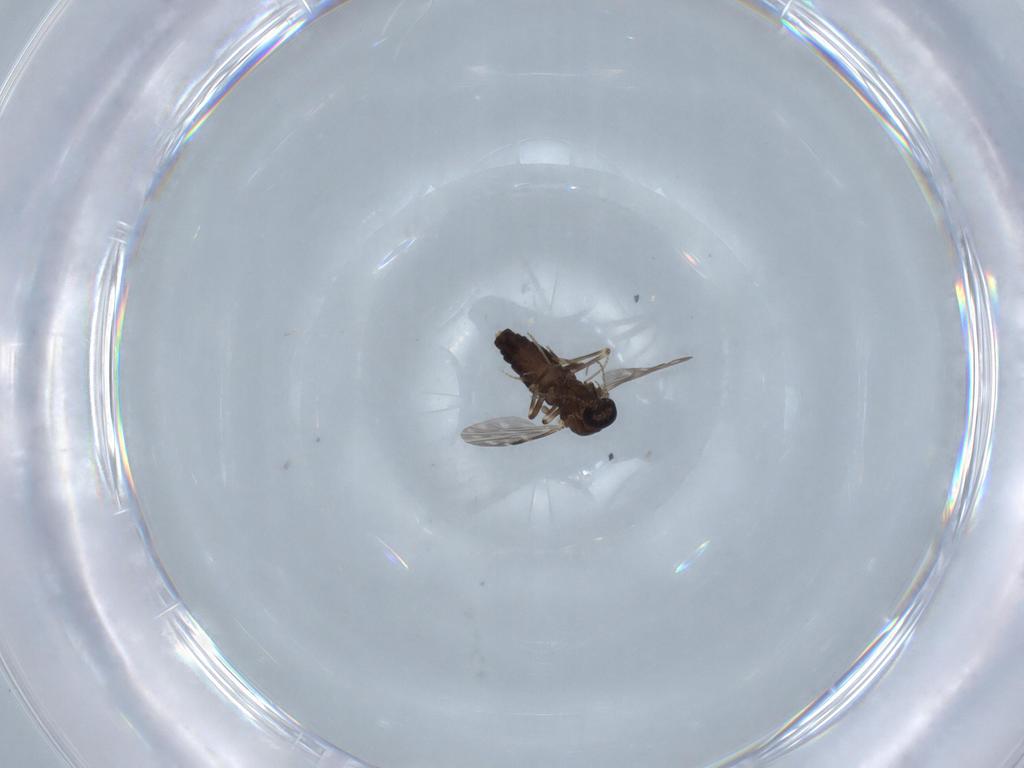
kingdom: Animalia
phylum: Arthropoda
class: Insecta
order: Diptera
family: Ceratopogonidae
